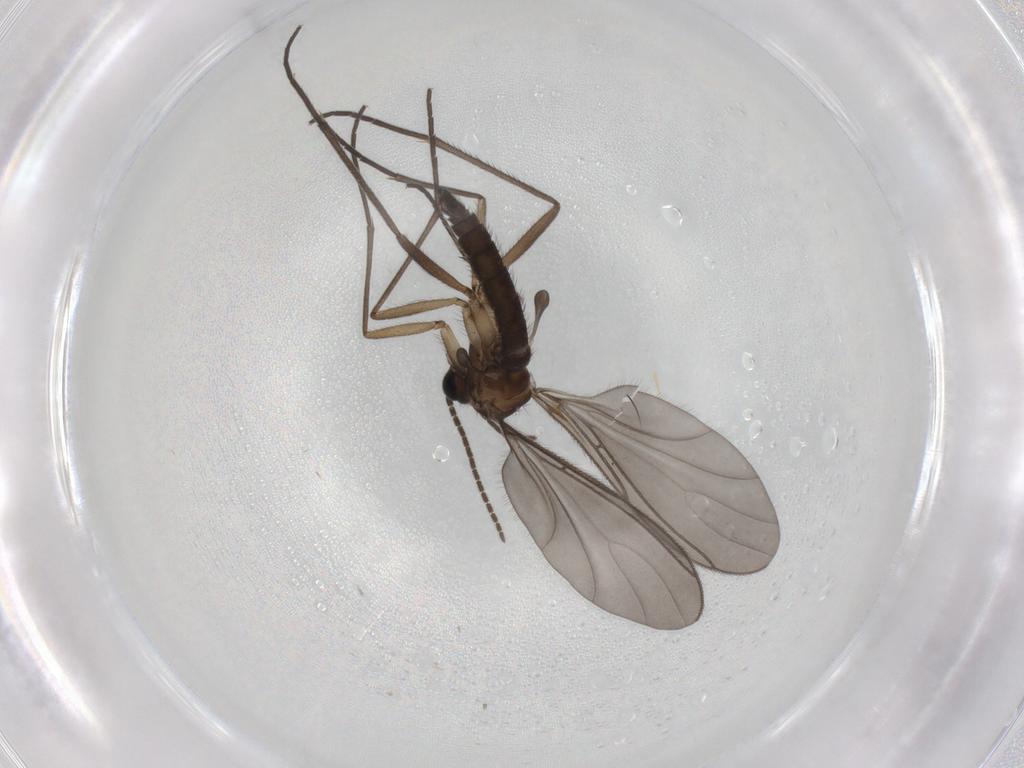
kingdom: Animalia
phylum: Arthropoda
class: Insecta
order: Diptera
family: Sciaridae
